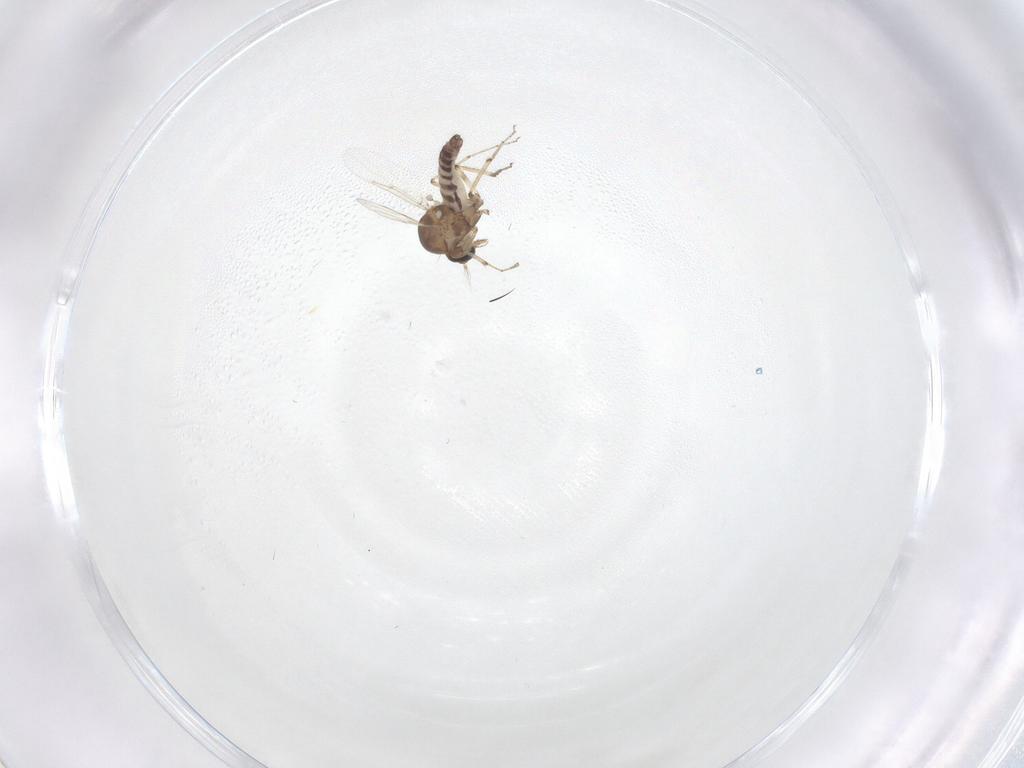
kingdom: Animalia
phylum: Arthropoda
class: Insecta
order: Diptera
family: Ceratopogonidae
